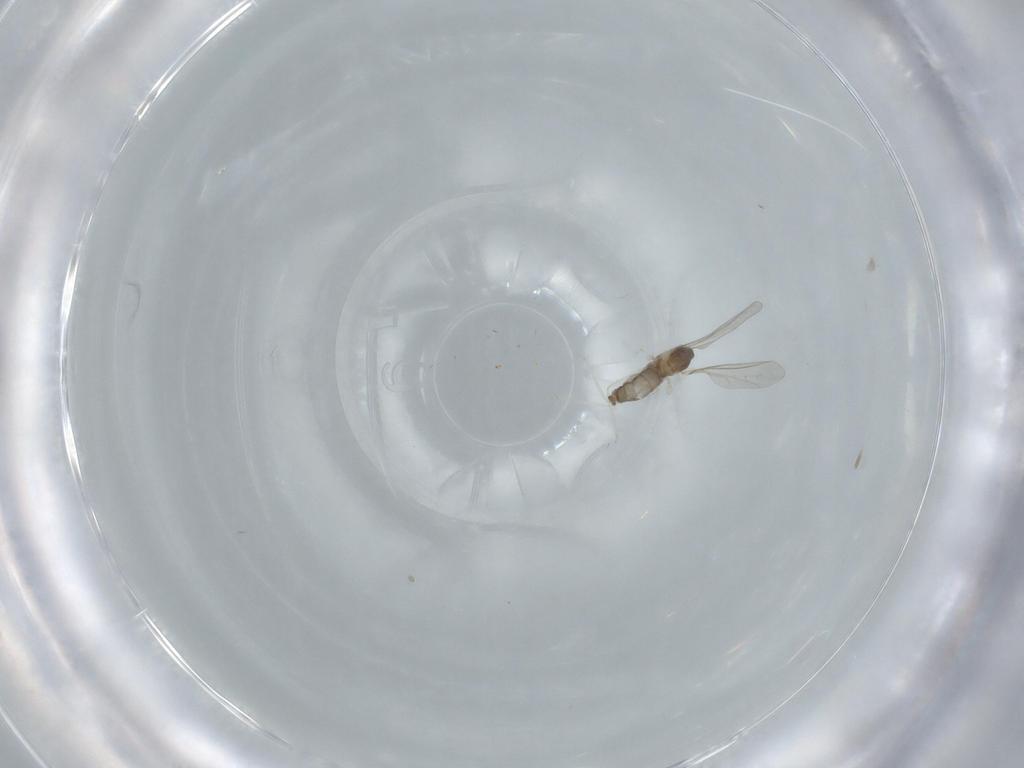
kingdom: Animalia
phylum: Arthropoda
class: Insecta
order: Diptera
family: Cecidomyiidae
